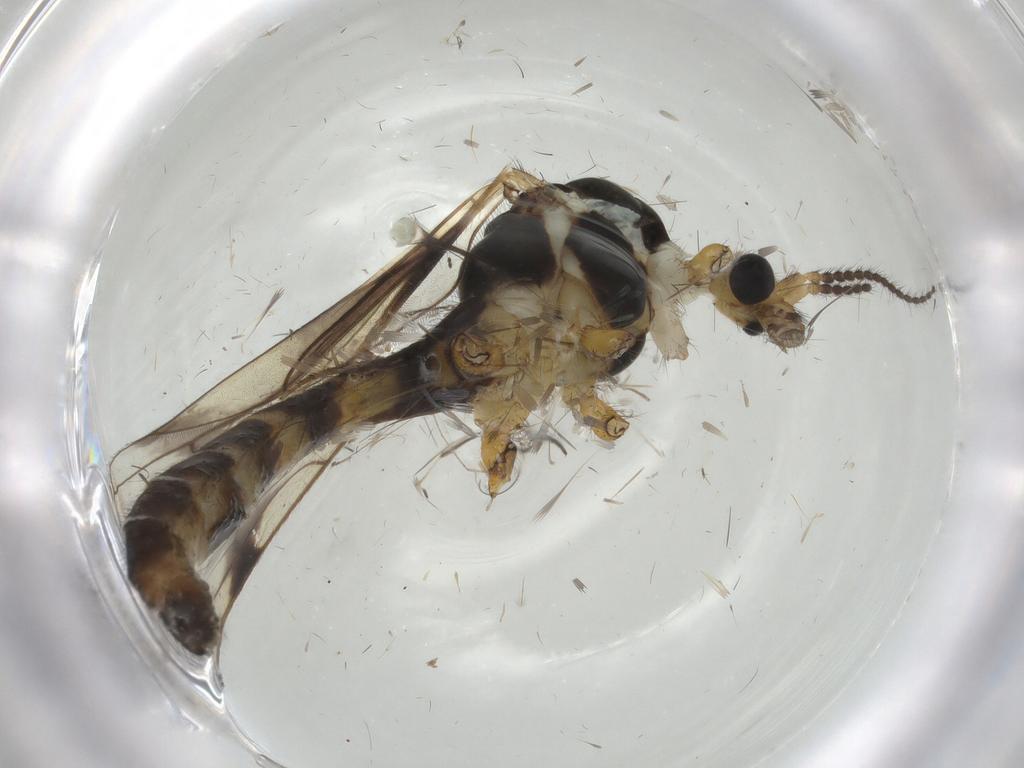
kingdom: Animalia
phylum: Arthropoda
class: Insecta
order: Diptera
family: Limoniidae
